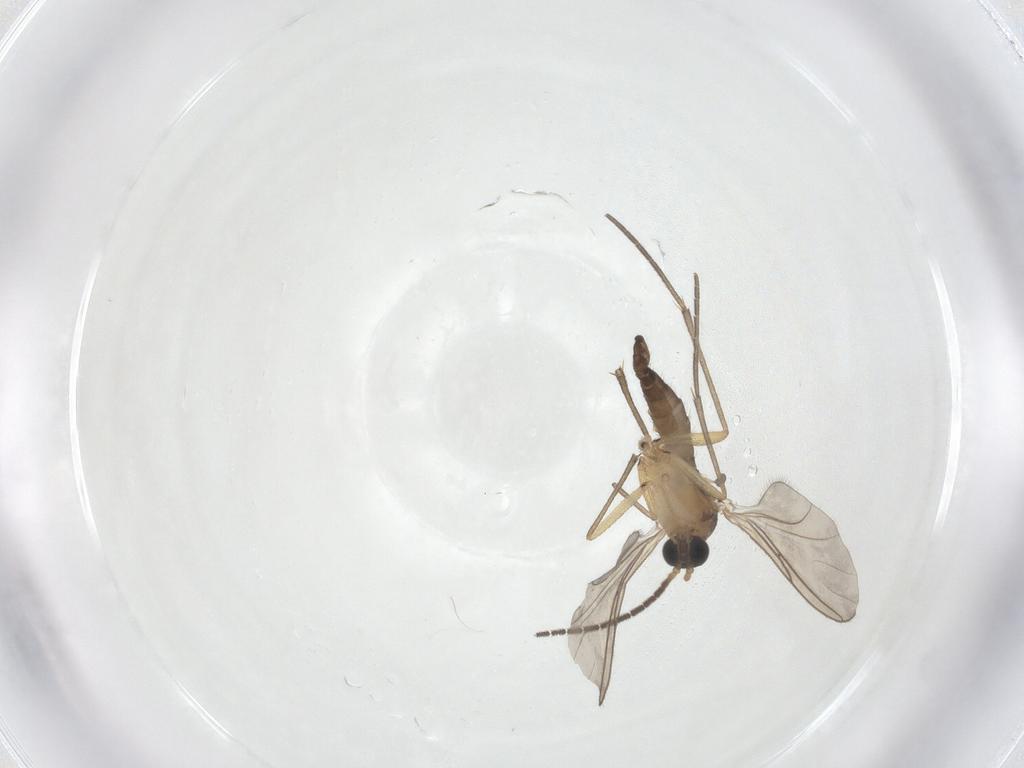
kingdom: Animalia
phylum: Arthropoda
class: Insecta
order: Diptera
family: Sciaridae
